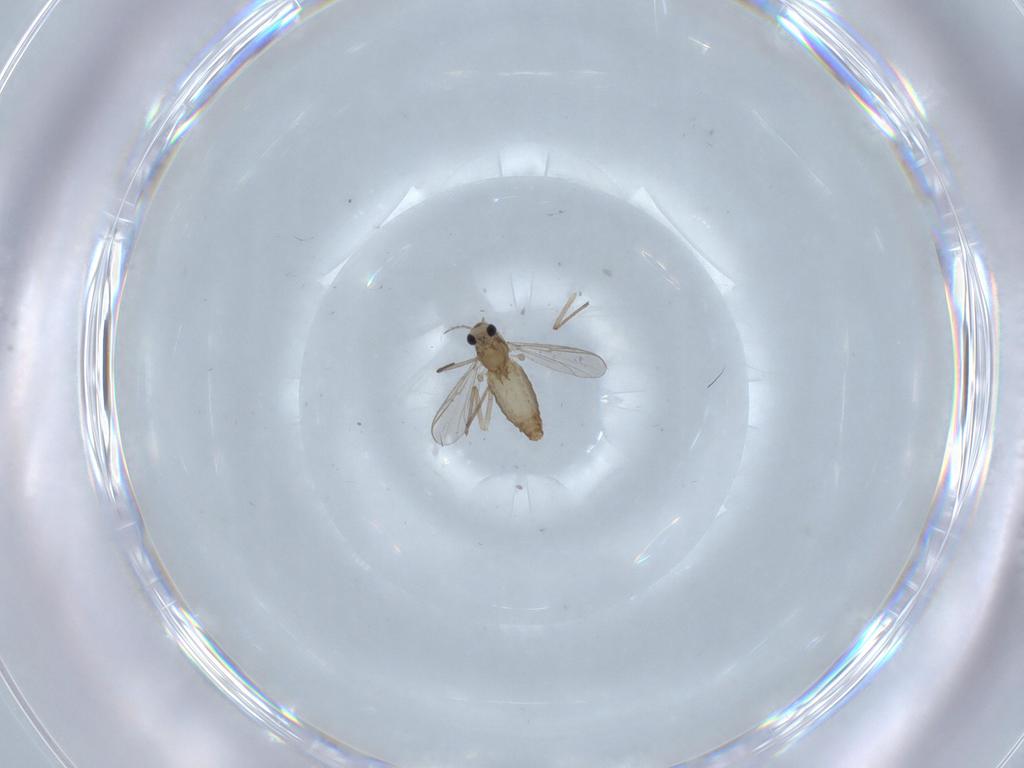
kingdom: Animalia
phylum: Arthropoda
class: Insecta
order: Diptera
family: Chironomidae
